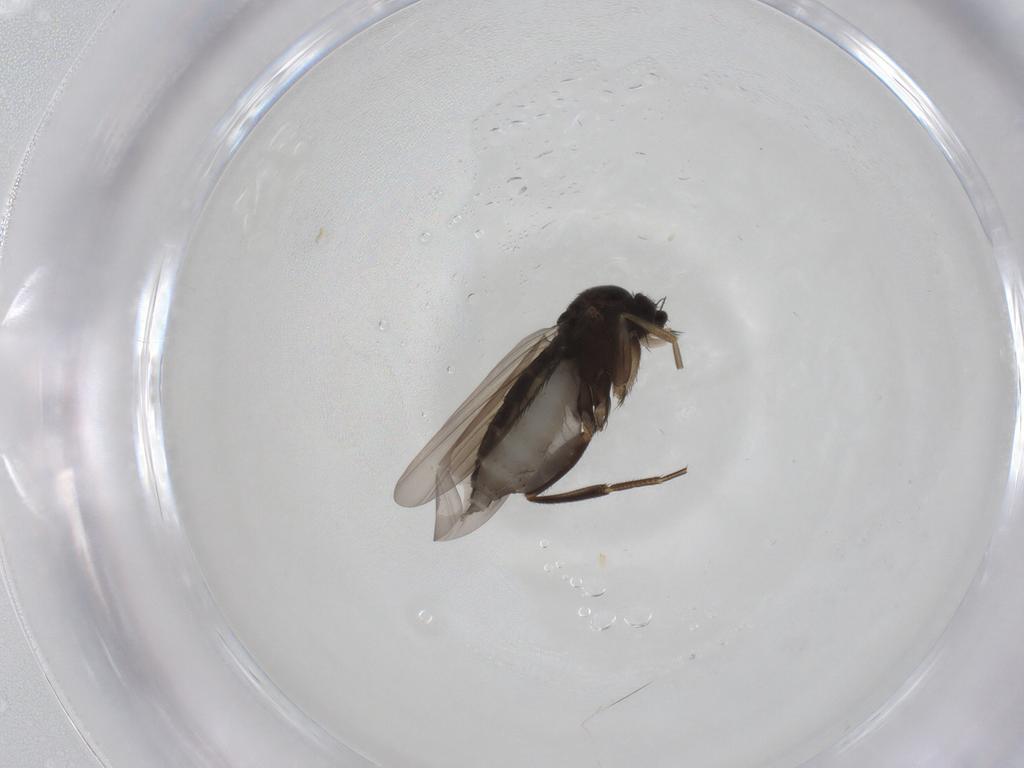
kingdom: Animalia
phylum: Arthropoda
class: Insecta
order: Diptera
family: Phoridae
